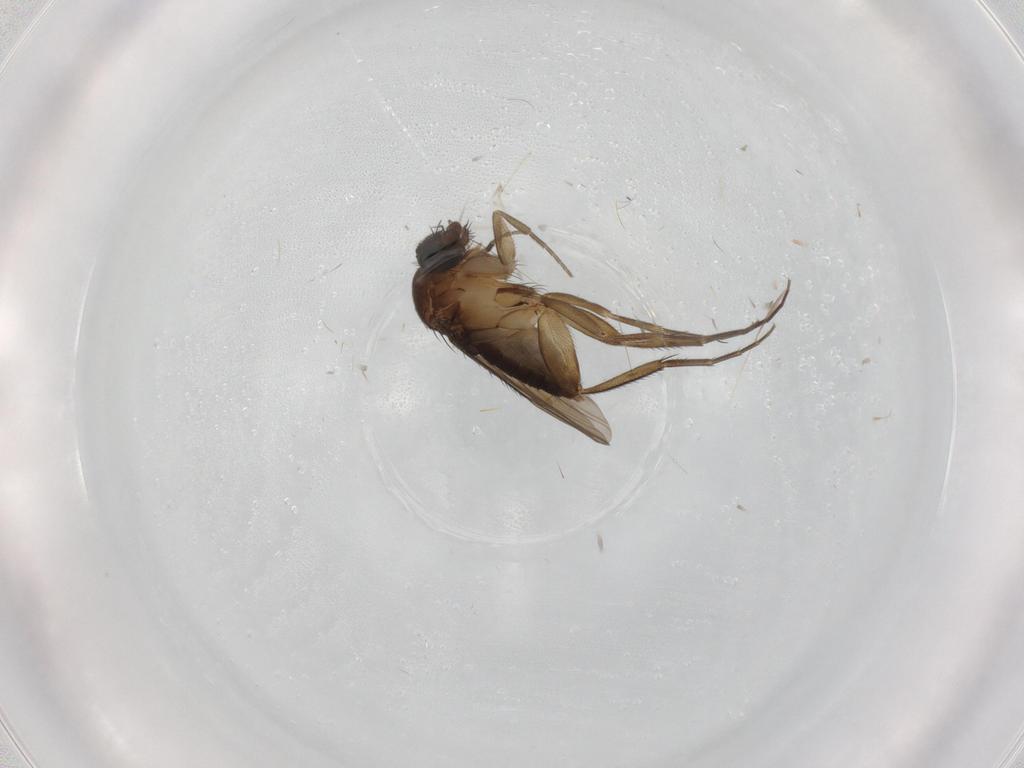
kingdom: Animalia
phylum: Arthropoda
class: Insecta
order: Diptera
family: Phoridae
